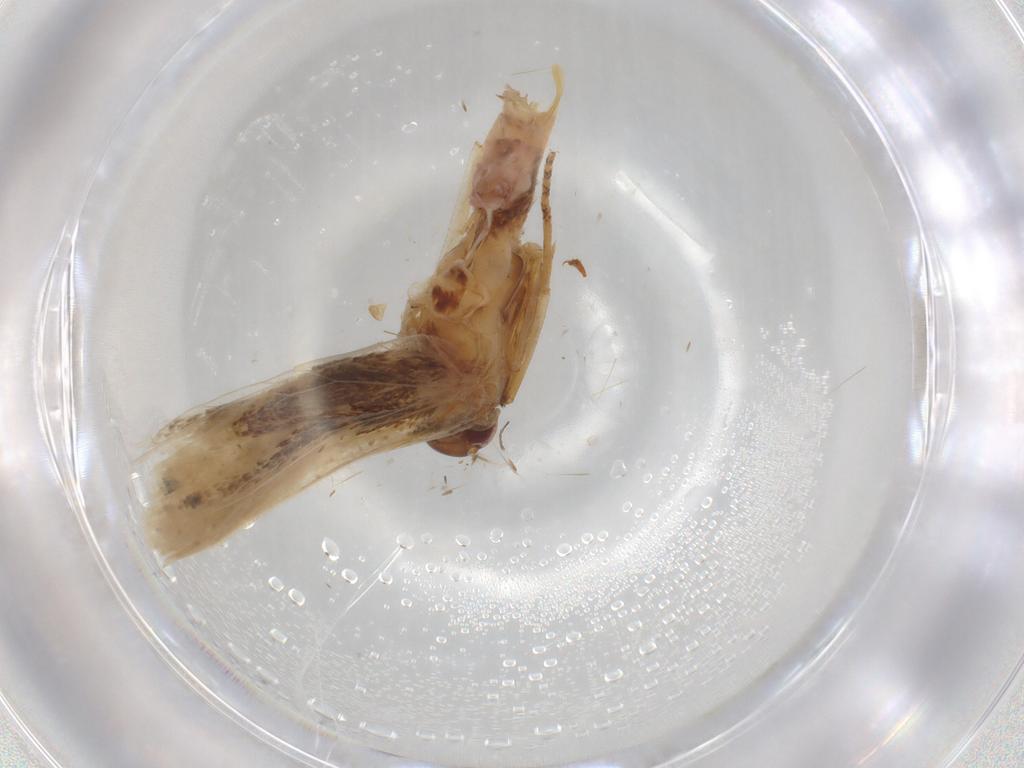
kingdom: Animalia
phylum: Arthropoda
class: Insecta
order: Lepidoptera
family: Gelechiidae
